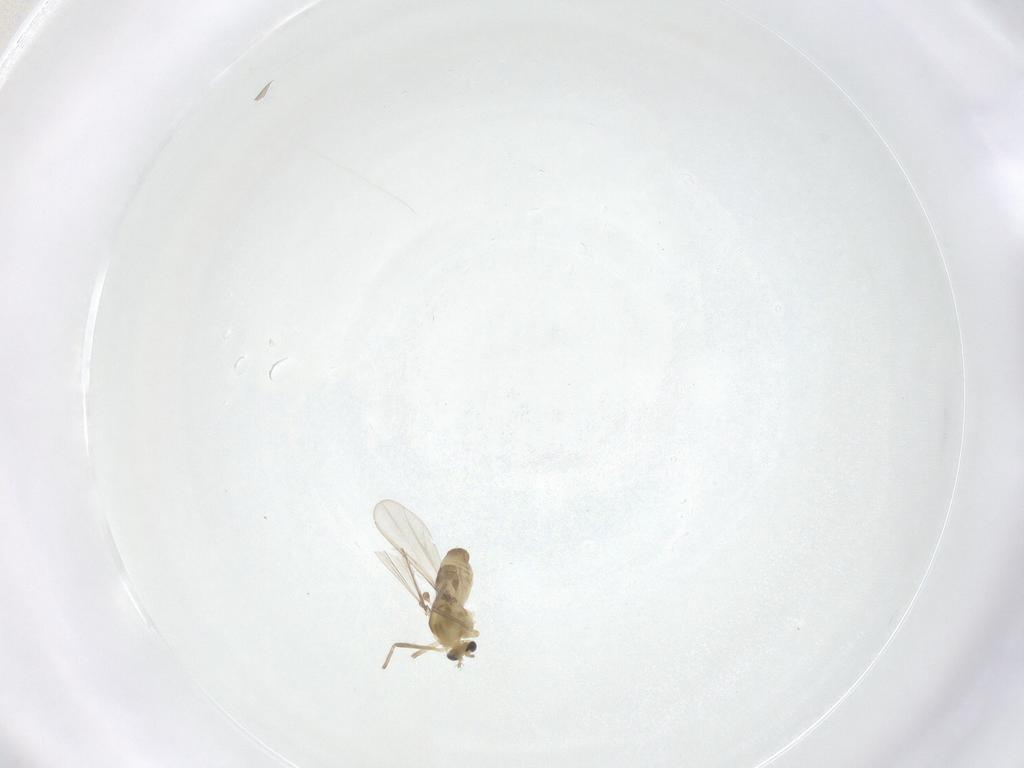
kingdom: Animalia
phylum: Arthropoda
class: Insecta
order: Diptera
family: Chironomidae
